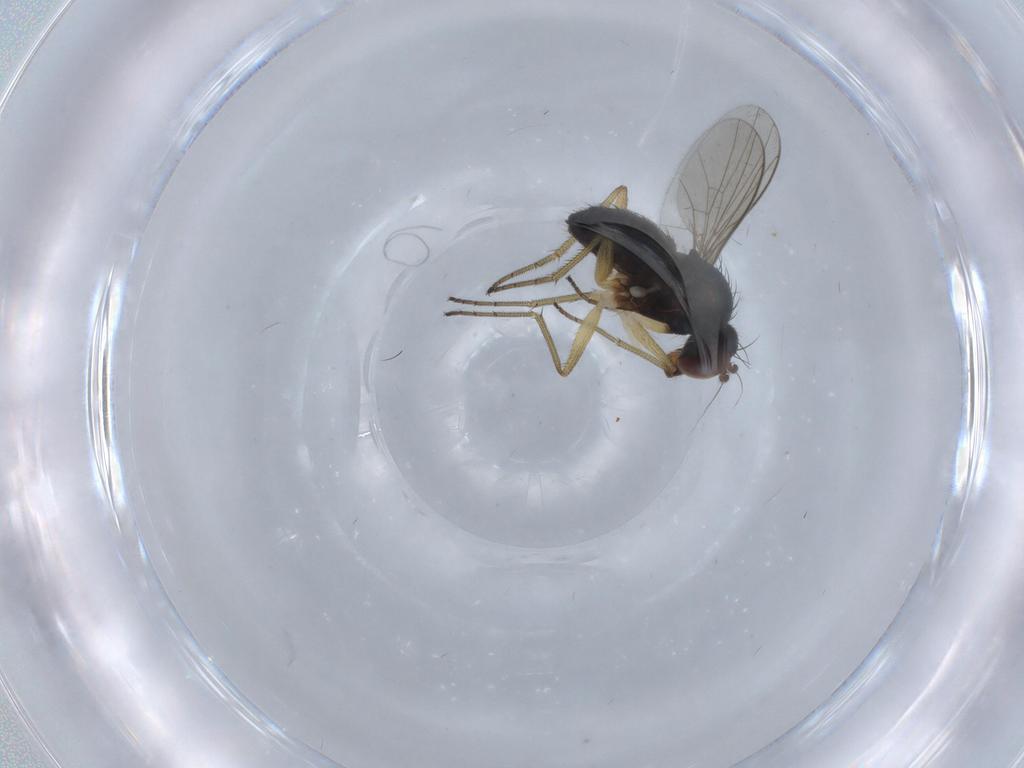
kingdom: Animalia
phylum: Arthropoda
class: Insecta
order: Diptera
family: Dolichopodidae
